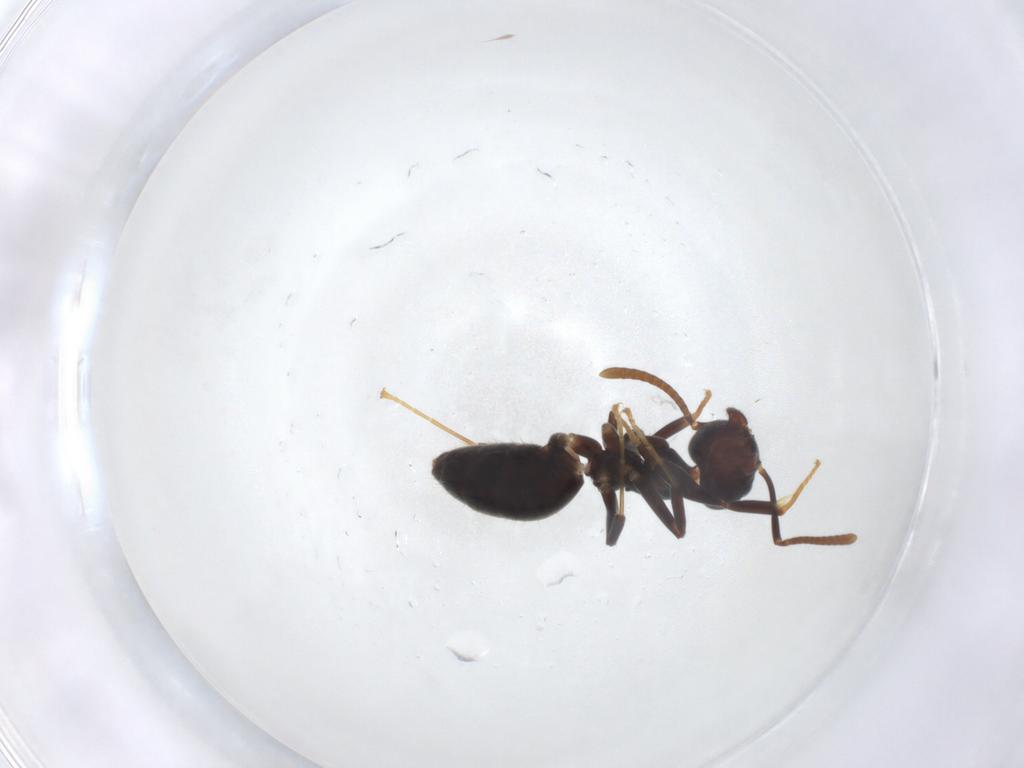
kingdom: Animalia
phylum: Arthropoda
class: Insecta
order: Hymenoptera
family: Formicidae
